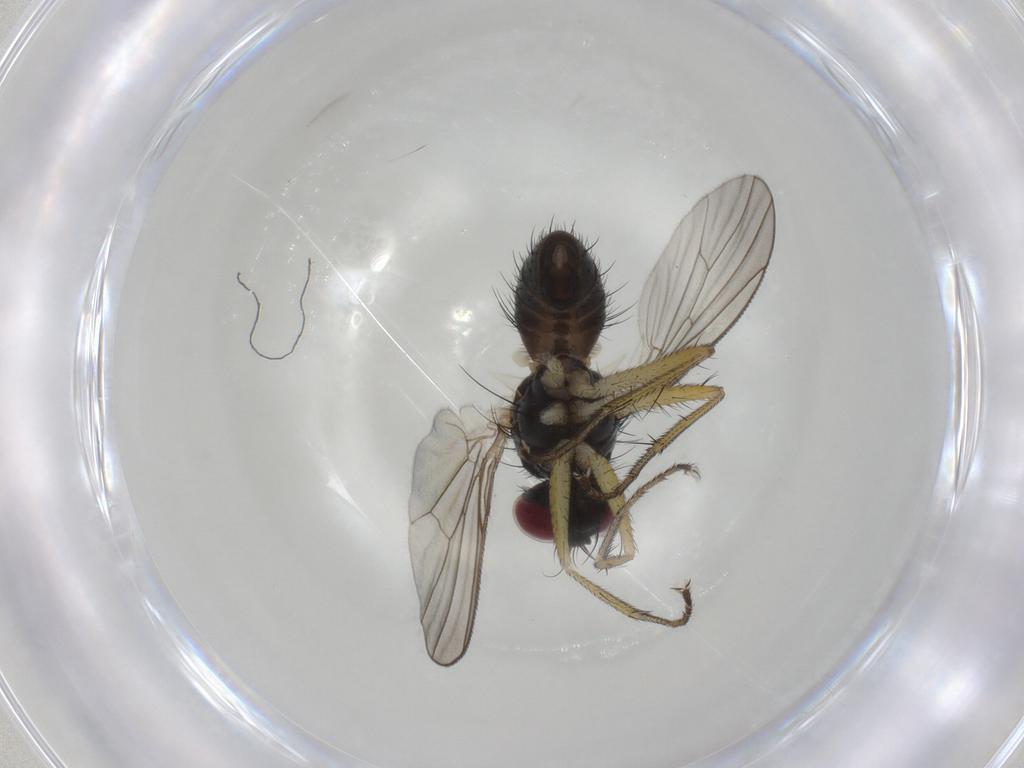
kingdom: Animalia
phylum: Arthropoda
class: Insecta
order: Diptera
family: Muscidae
